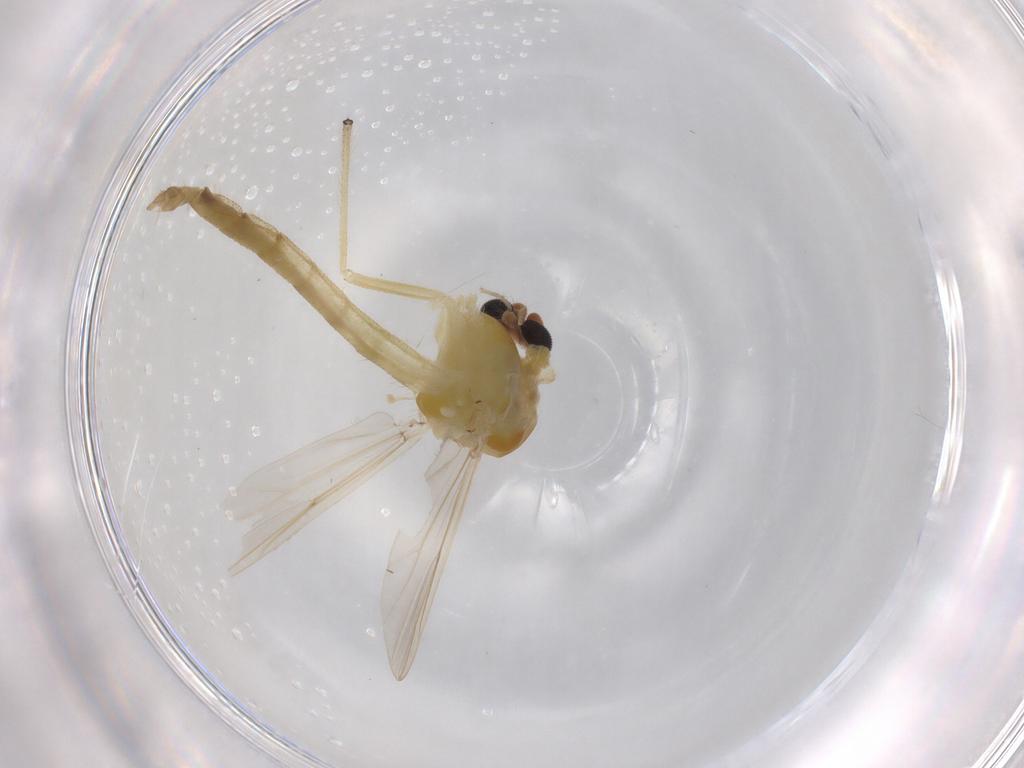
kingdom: Animalia
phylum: Arthropoda
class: Insecta
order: Diptera
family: Chironomidae
